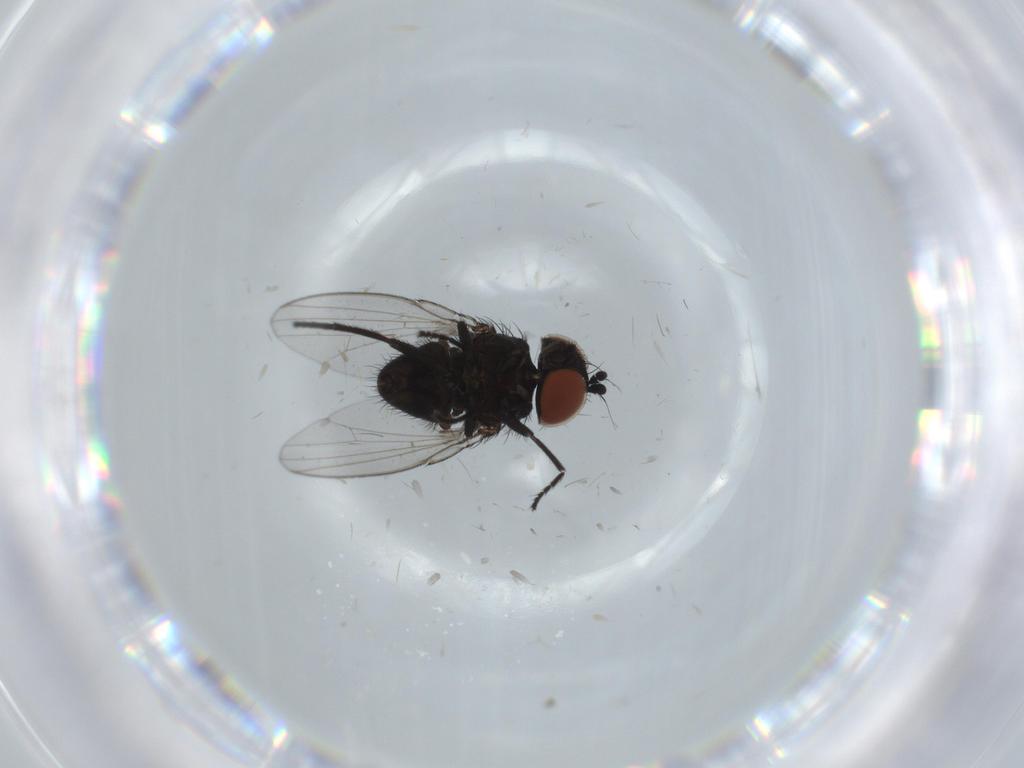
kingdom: Animalia
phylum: Arthropoda
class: Insecta
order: Diptera
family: Milichiidae
